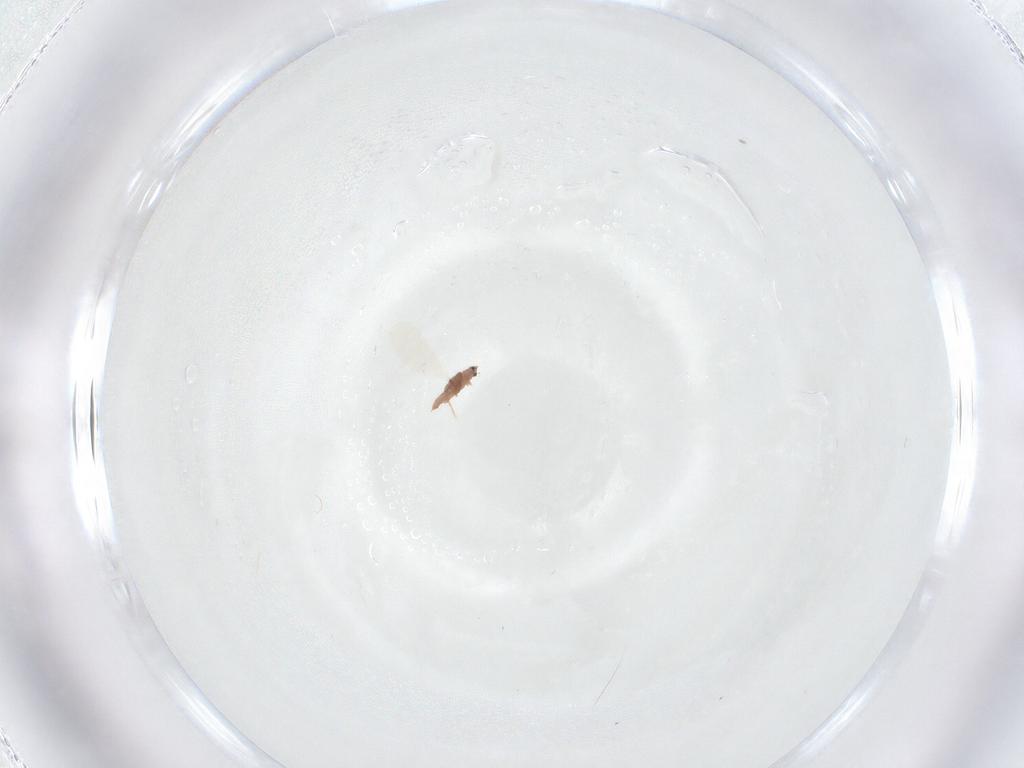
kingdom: Animalia
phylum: Arthropoda
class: Insecta
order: Hemiptera
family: Diaspididae
